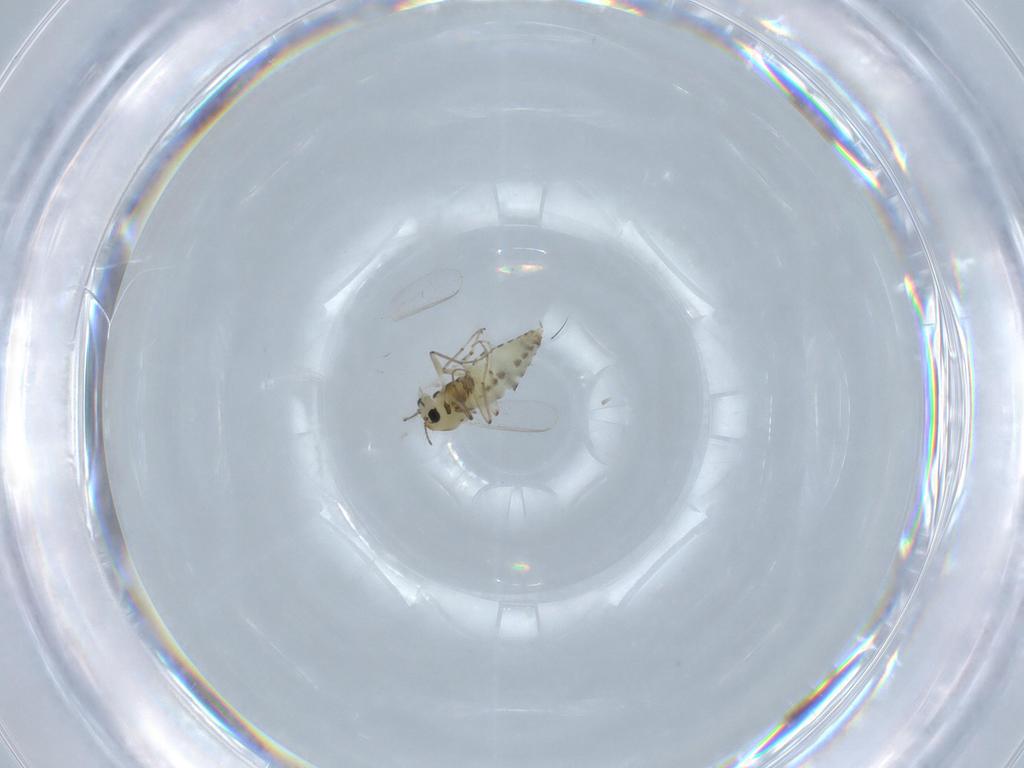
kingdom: Animalia
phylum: Arthropoda
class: Insecta
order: Diptera
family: Chironomidae
